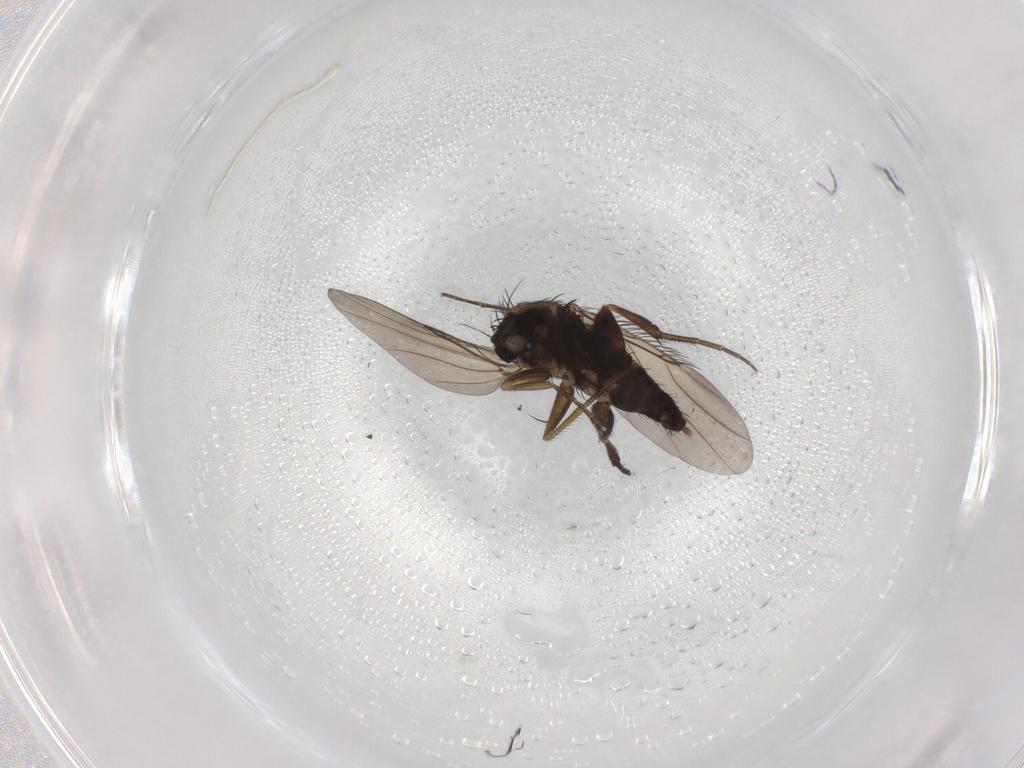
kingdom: Animalia
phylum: Arthropoda
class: Insecta
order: Diptera
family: Phoridae
